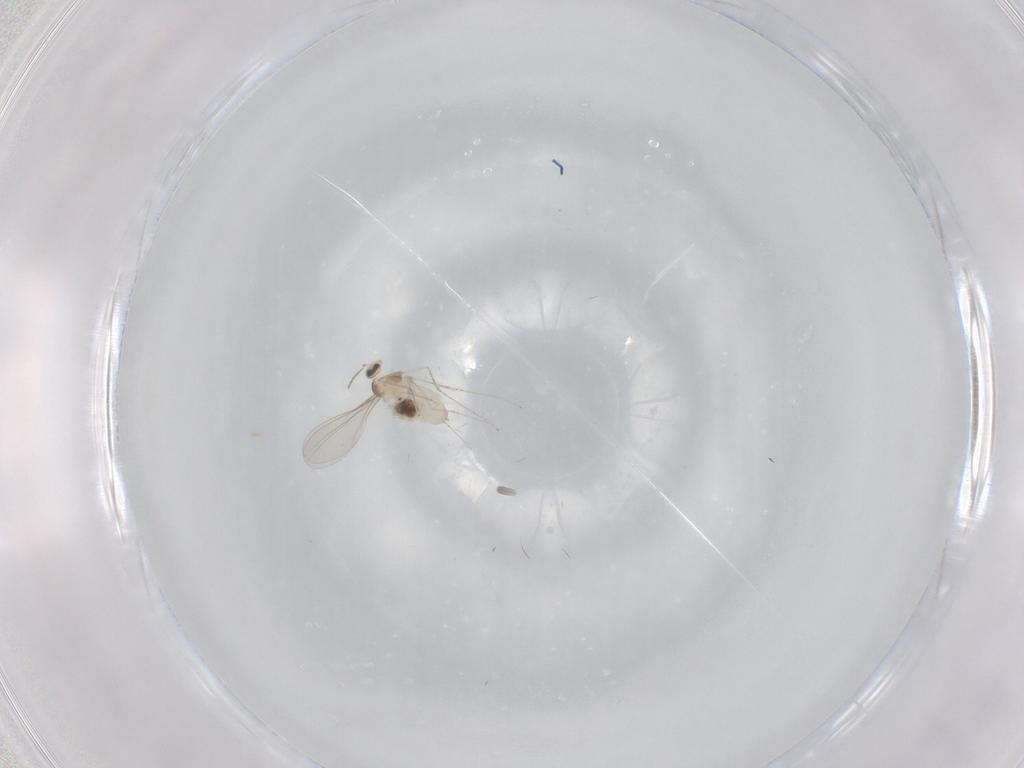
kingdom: Animalia
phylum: Arthropoda
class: Insecta
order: Diptera
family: Cecidomyiidae
